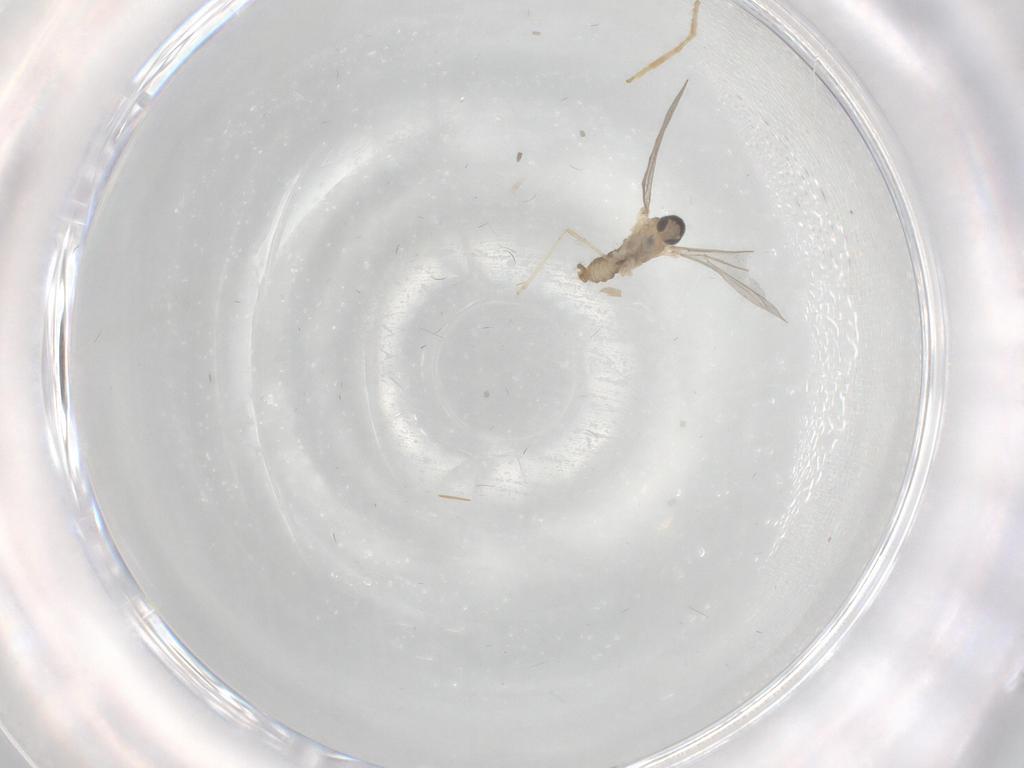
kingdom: Animalia
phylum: Arthropoda
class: Insecta
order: Diptera
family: Cecidomyiidae
